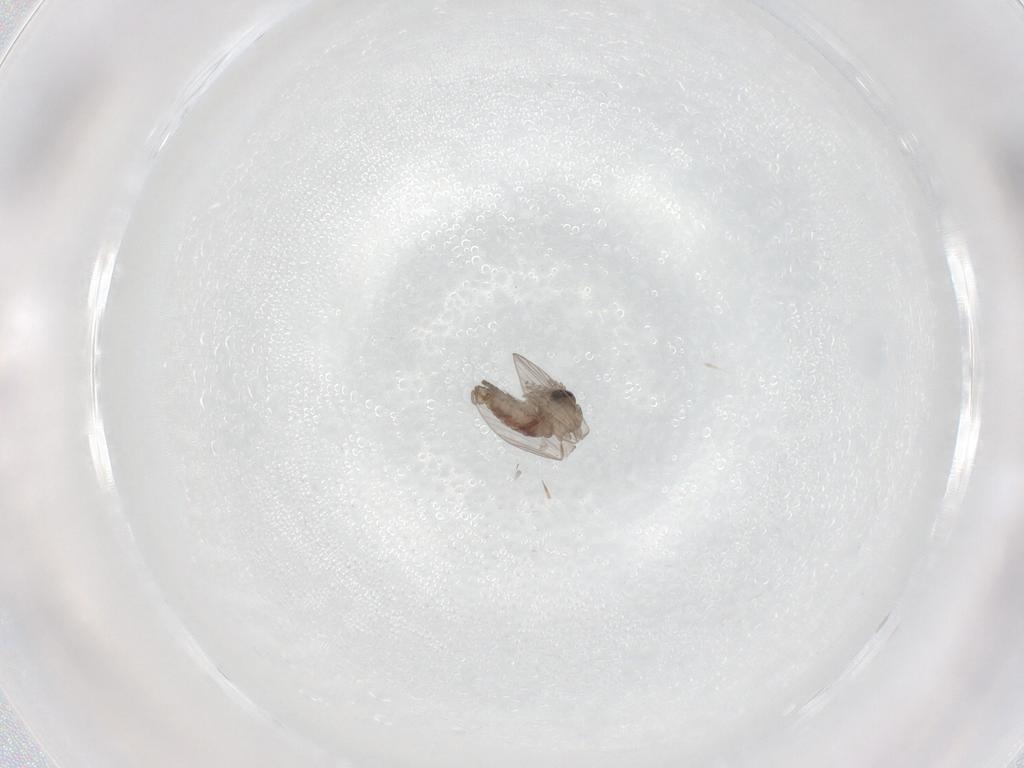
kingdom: Animalia
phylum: Arthropoda
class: Insecta
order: Diptera
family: Psychodidae
